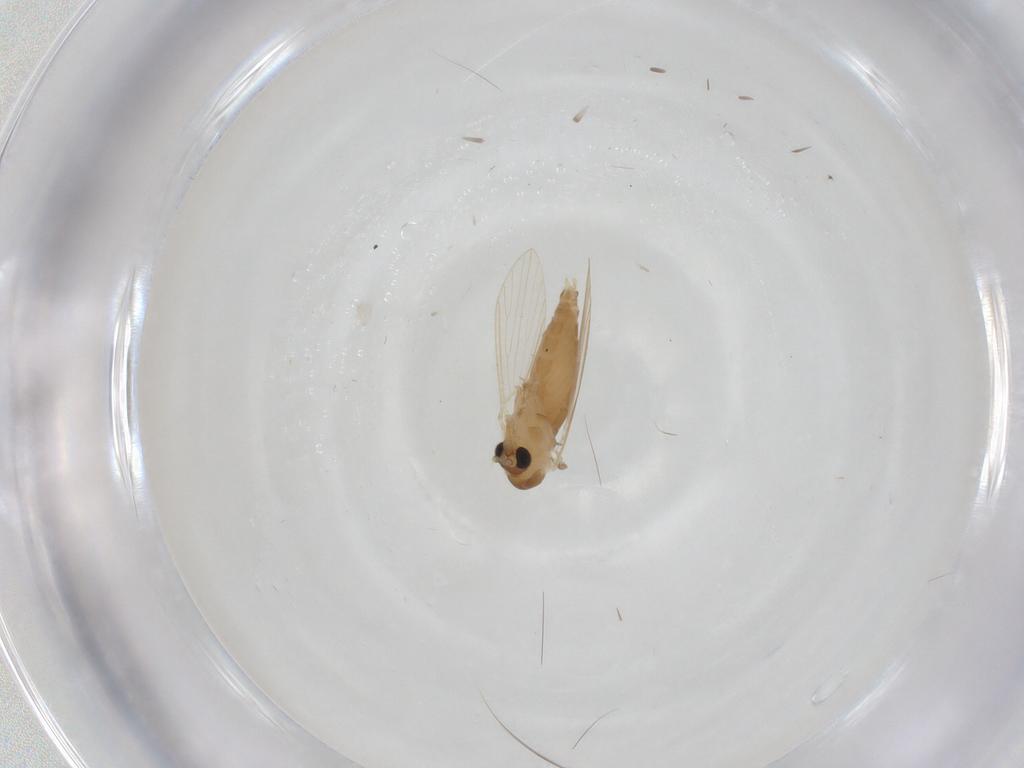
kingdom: Animalia
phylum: Arthropoda
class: Insecta
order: Diptera
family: Psychodidae
